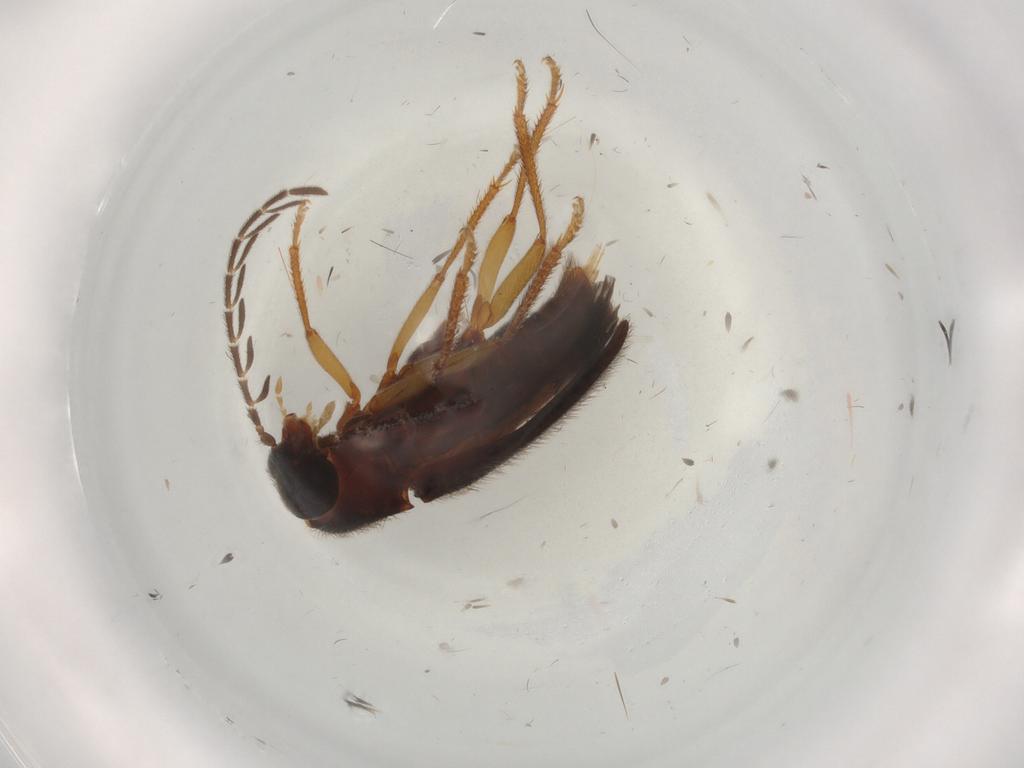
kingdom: Animalia
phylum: Arthropoda
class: Insecta
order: Coleoptera
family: Ptilodactylidae
